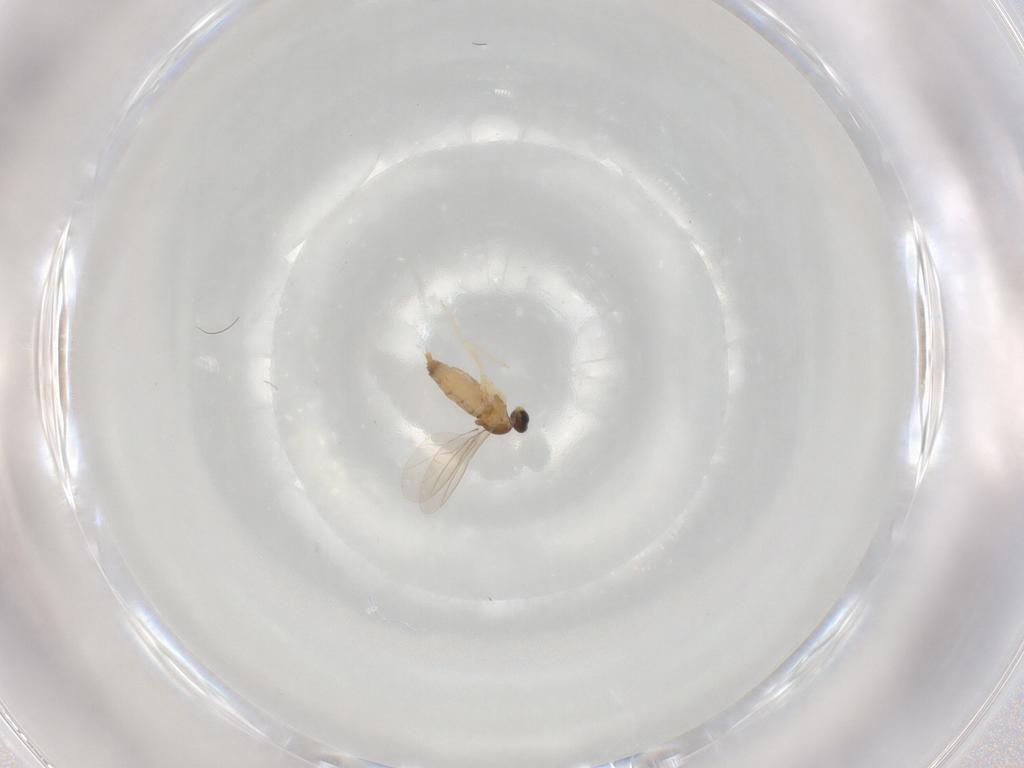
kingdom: Animalia
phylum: Arthropoda
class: Insecta
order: Diptera
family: Cecidomyiidae
